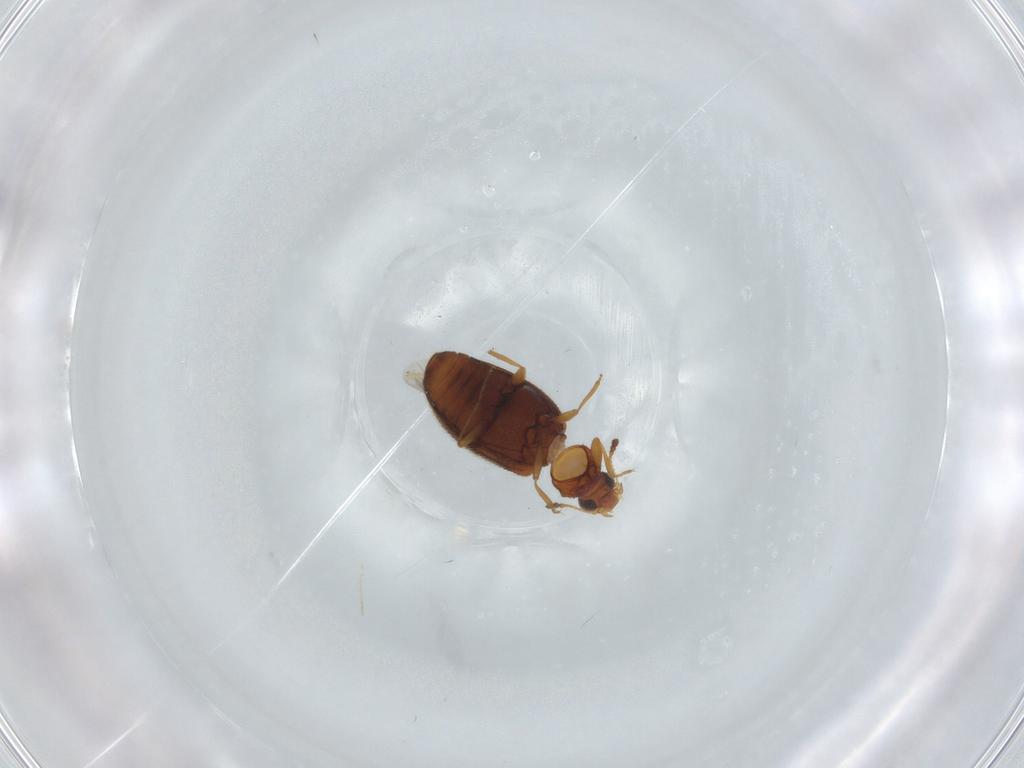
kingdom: Animalia
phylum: Arthropoda
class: Insecta
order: Coleoptera
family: Latridiidae
